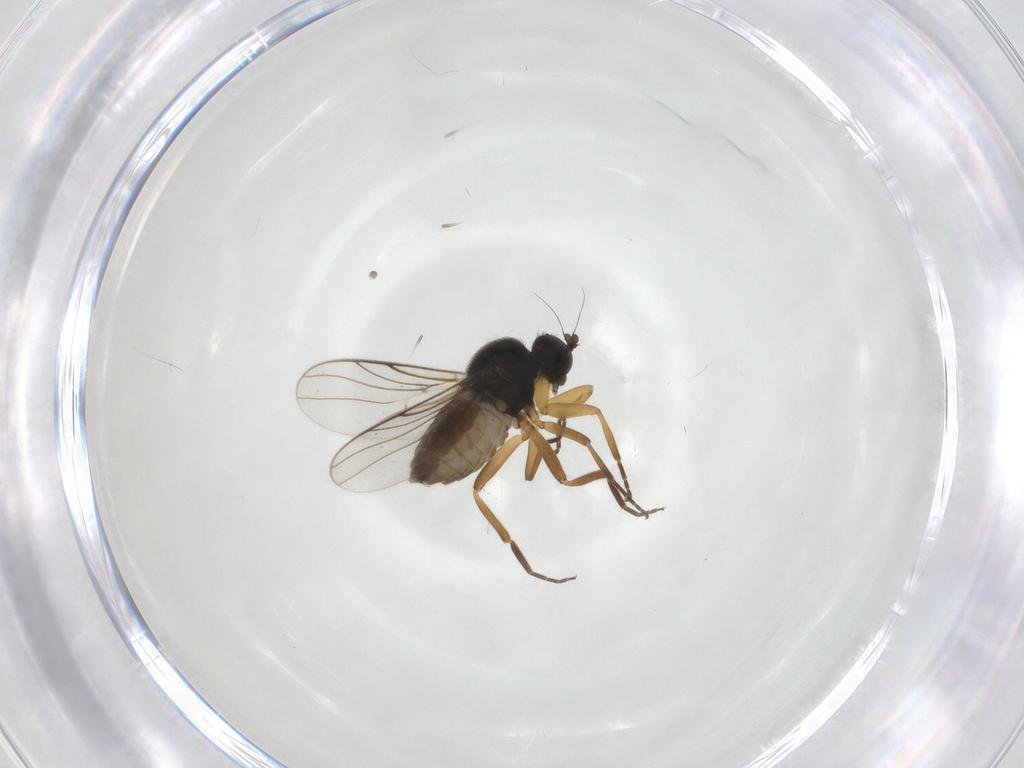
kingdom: Animalia
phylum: Arthropoda
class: Insecta
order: Diptera
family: Hybotidae
